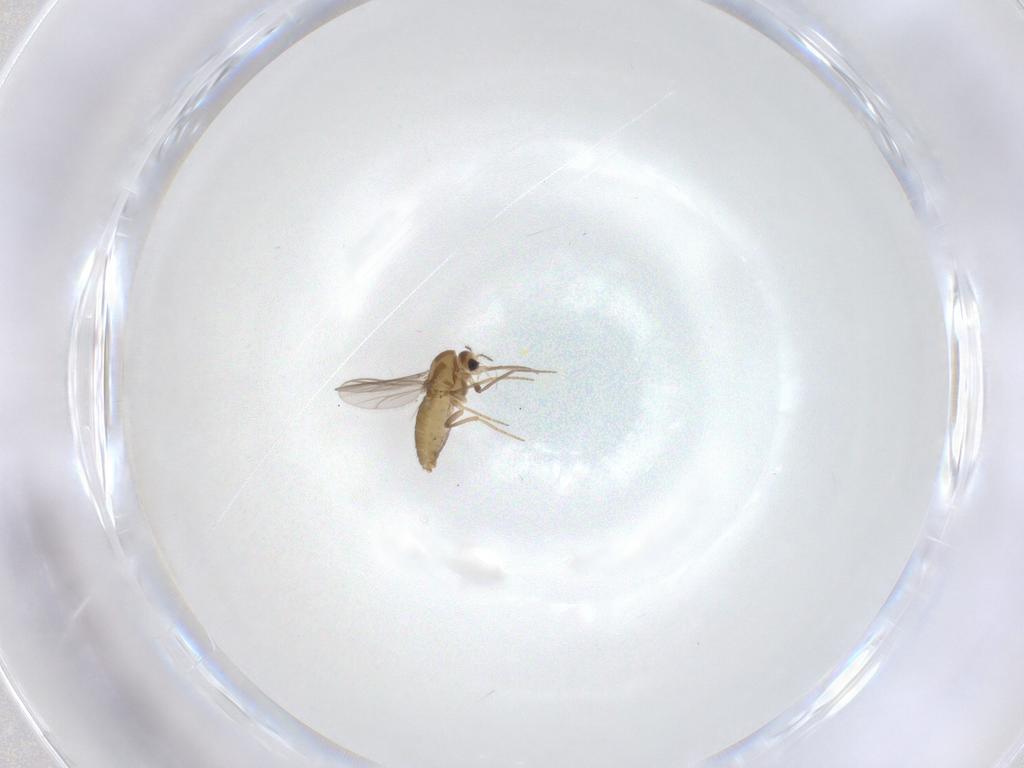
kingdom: Animalia
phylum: Arthropoda
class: Insecta
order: Diptera
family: Chironomidae
